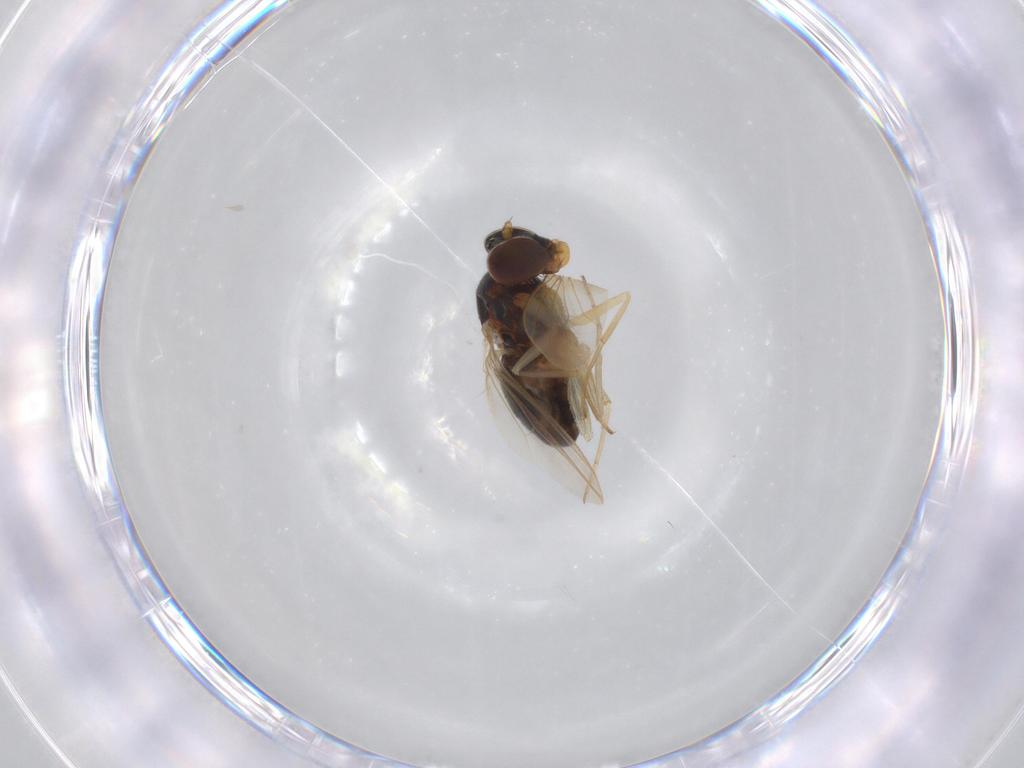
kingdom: Animalia
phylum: Arthropoda
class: Insecta
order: Diptera
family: Dolichopodidae
